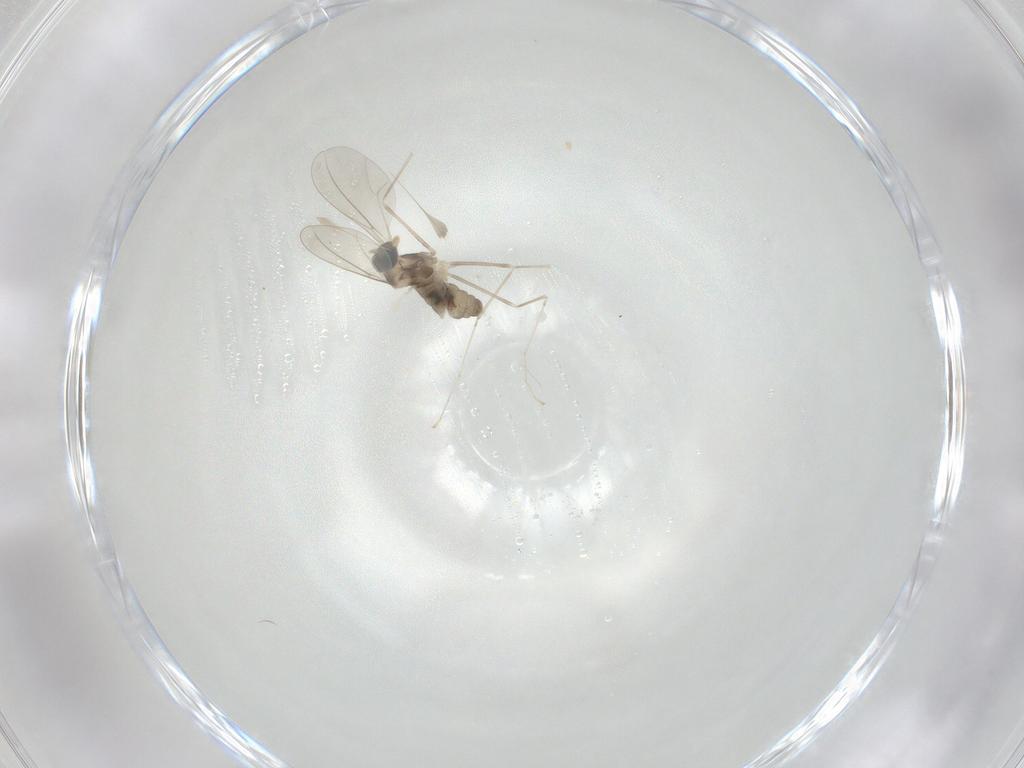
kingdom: Animalia
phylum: Arthropoda
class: Insecta
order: Diptera
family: Cecidomyiidae
